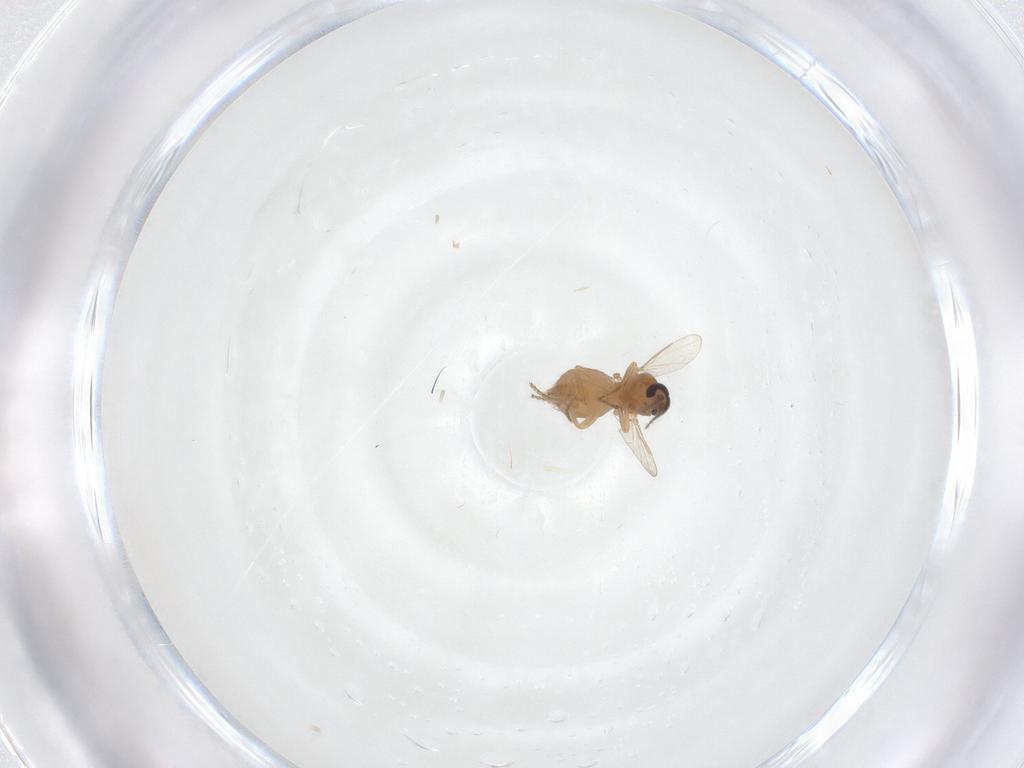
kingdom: Animalia
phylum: Arthropoda
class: Insecta
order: Diptera
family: Ceratopogonidae
